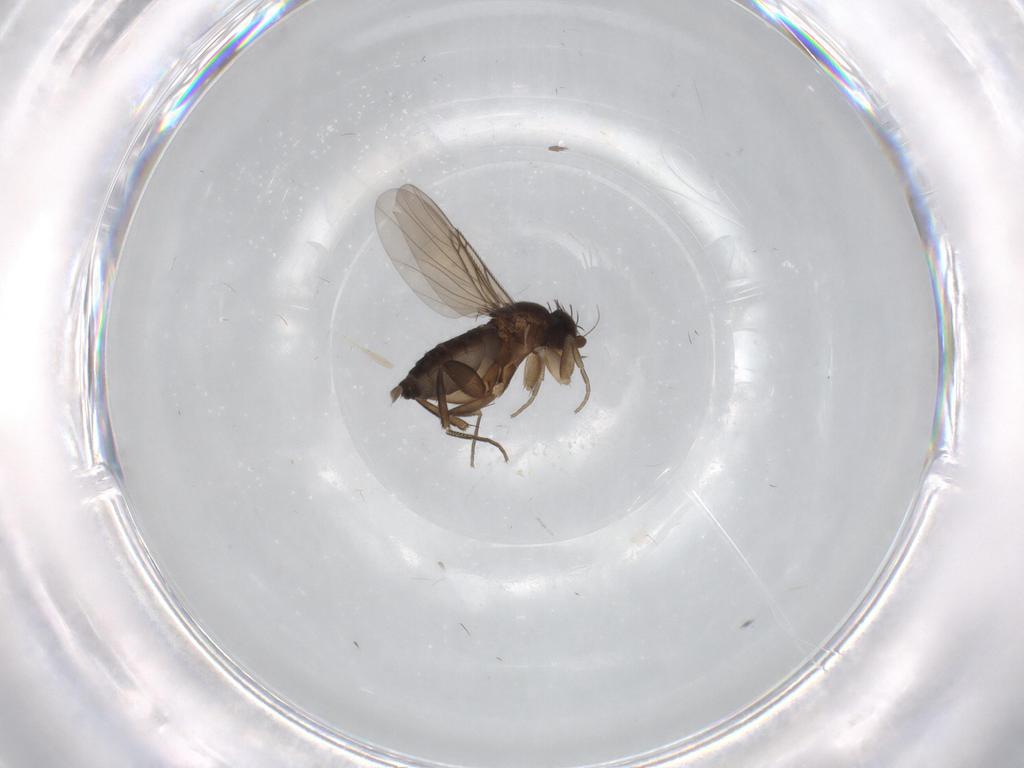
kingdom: Animalia
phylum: Arthropoda
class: Insecta
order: Diptera
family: Phoridae
